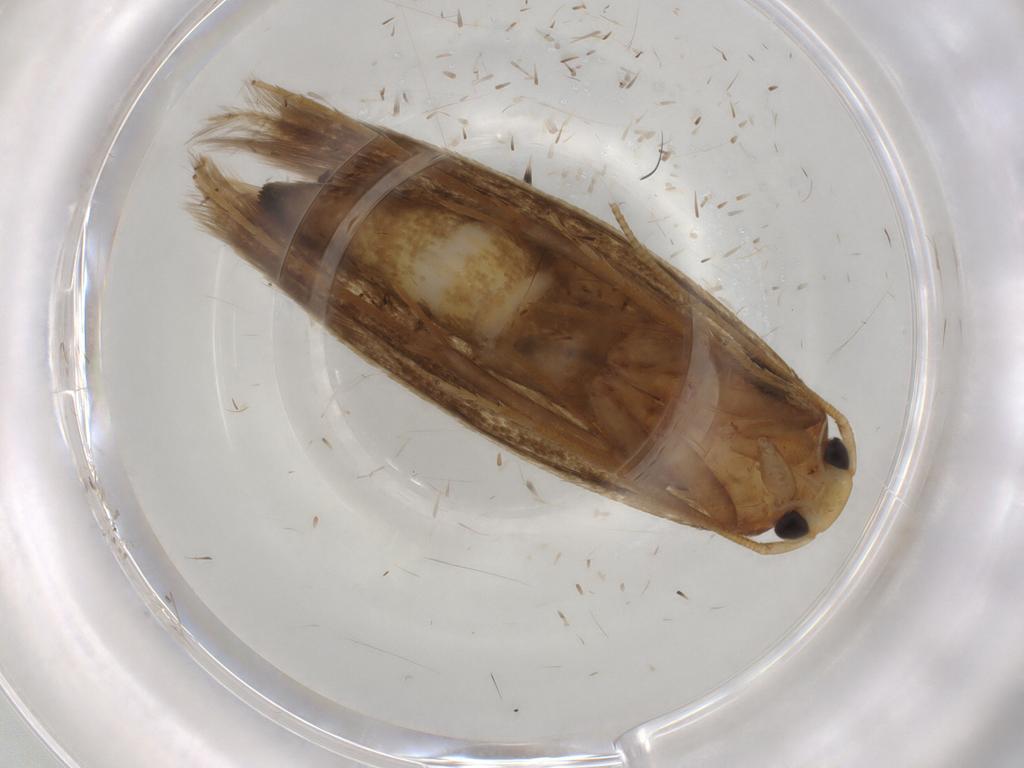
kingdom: Animalia
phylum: Arthropoda
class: Insecta
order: Lepidoptera
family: Tineidae
